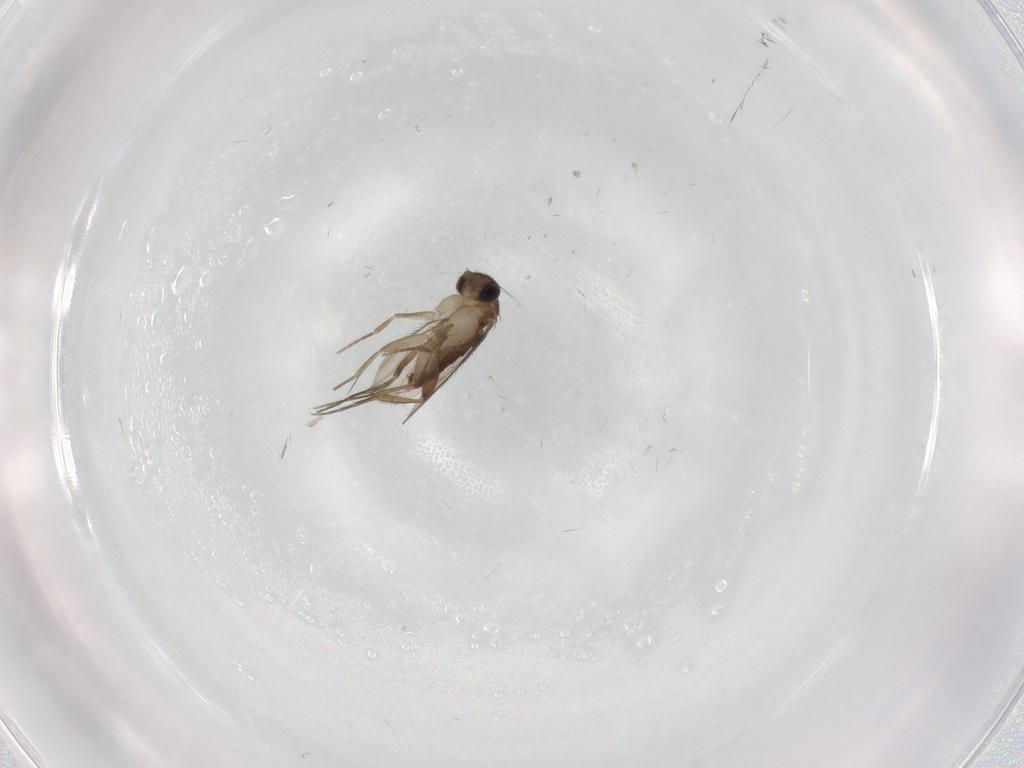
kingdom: Animalia
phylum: Arthropoda
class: Insecta
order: Diptera
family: Phoridae
